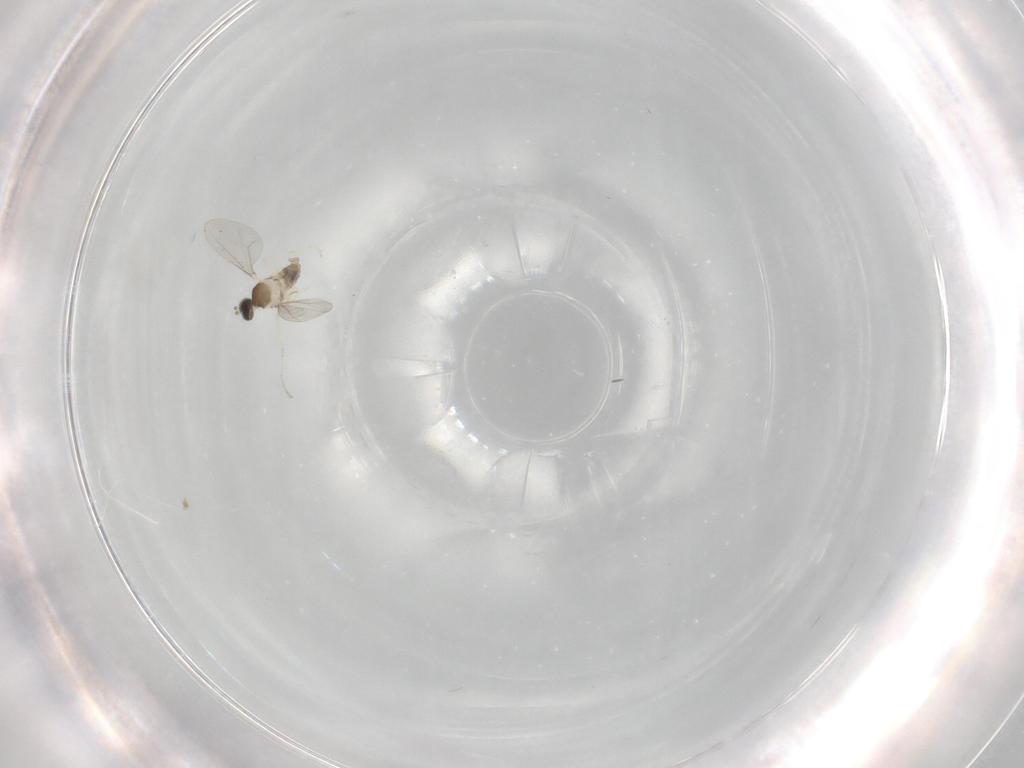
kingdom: Animalia
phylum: Arthropoda
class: Insecta
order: Diptera
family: Cecidomyiidae
